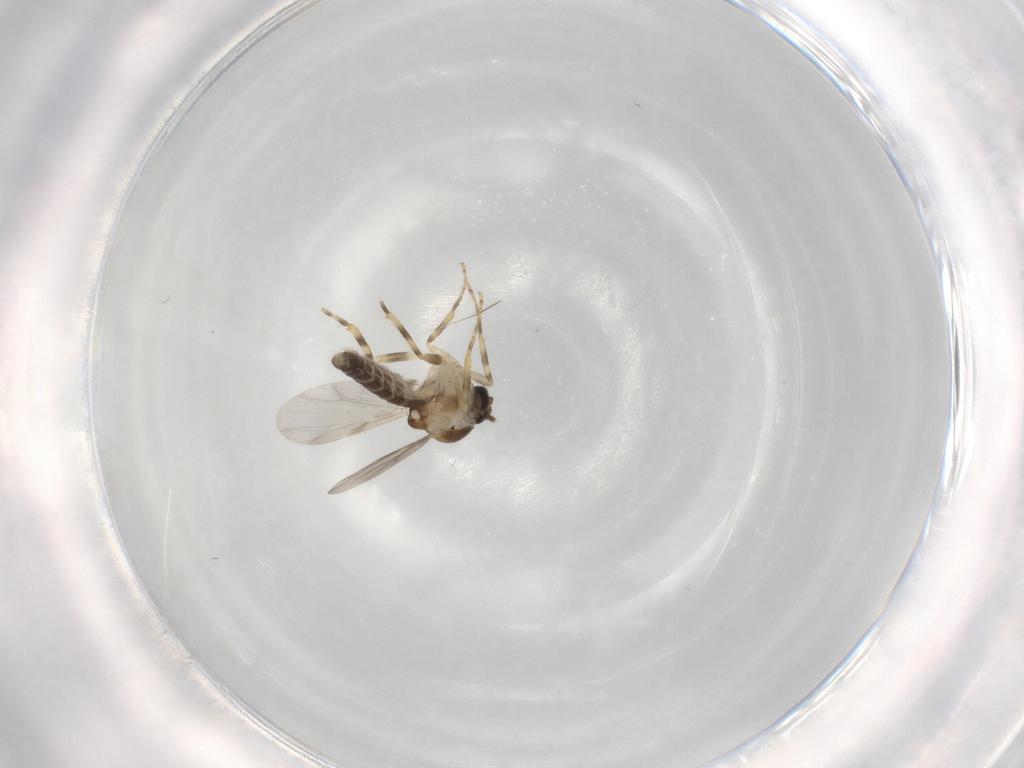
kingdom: Animalia
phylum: Arthropoda
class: Insecta
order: Diptera
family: Ceratopogonidae
